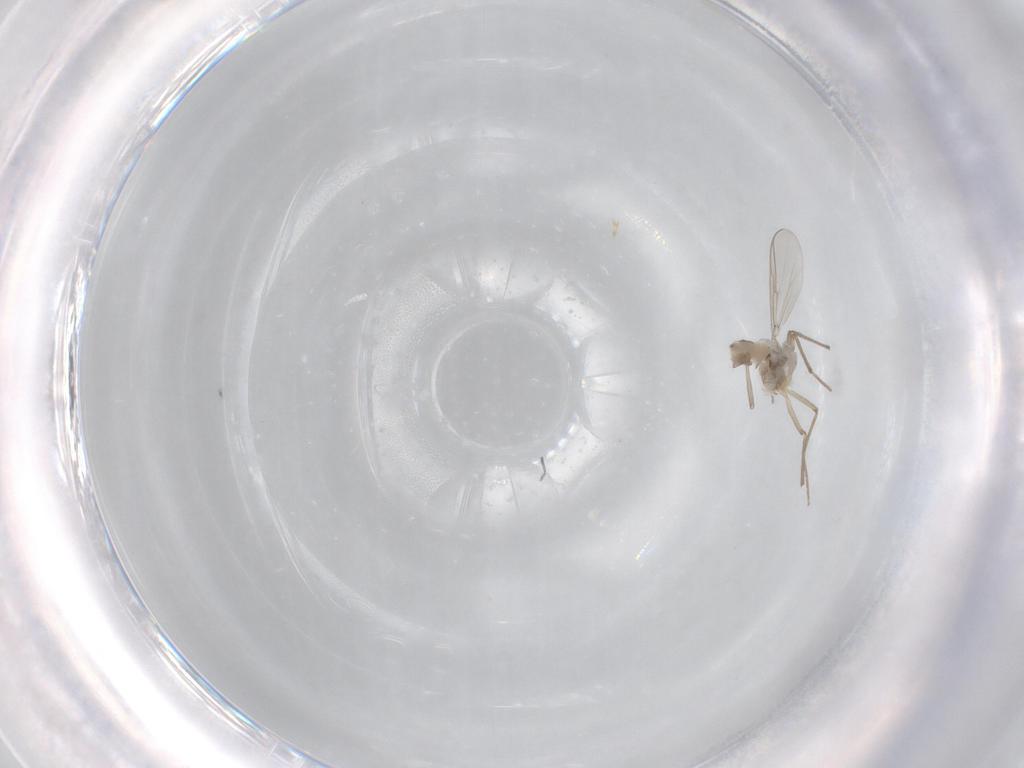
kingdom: Animalia
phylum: Arthropoda
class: Insecta
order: Diptera
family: Chironomidae
